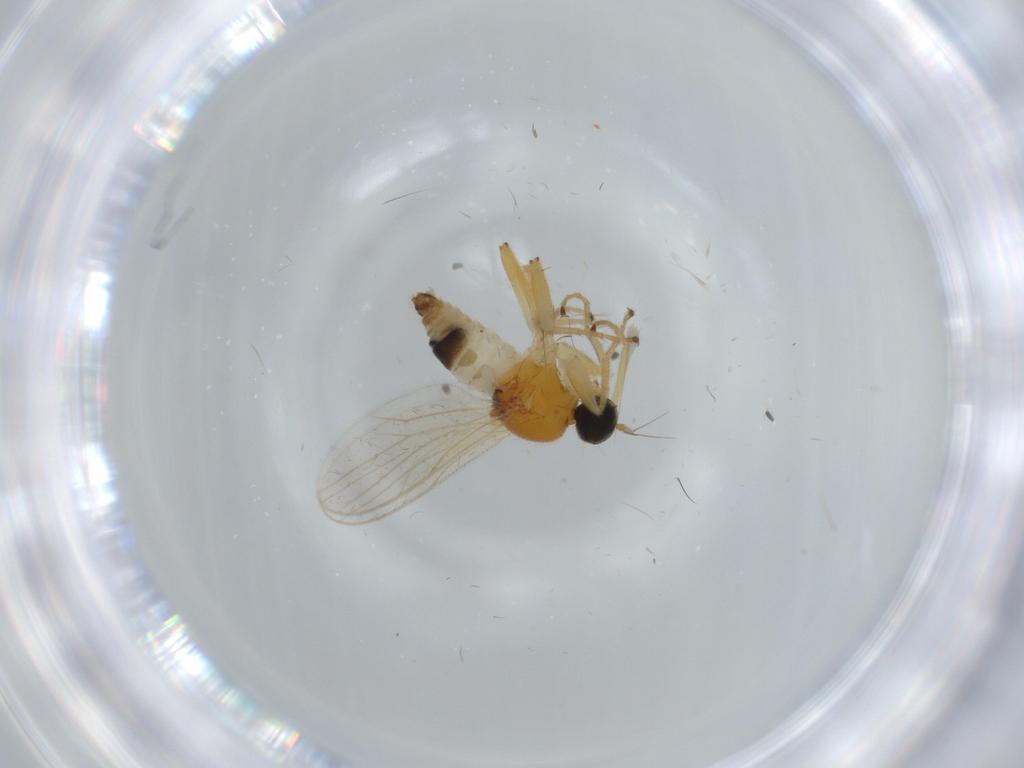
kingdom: Animalia
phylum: Arthropoda
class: Insecta
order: Diptera
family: Hybotidae
